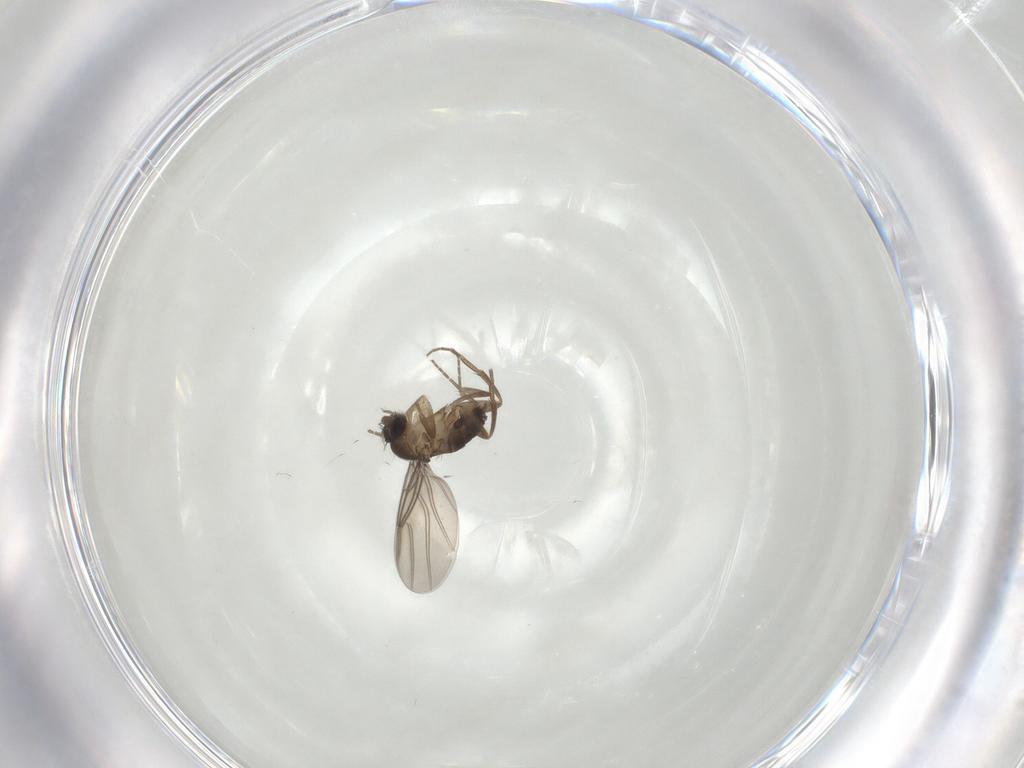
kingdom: Animalia
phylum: Arthropoda
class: Insecta
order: Diptera
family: Phoridae
